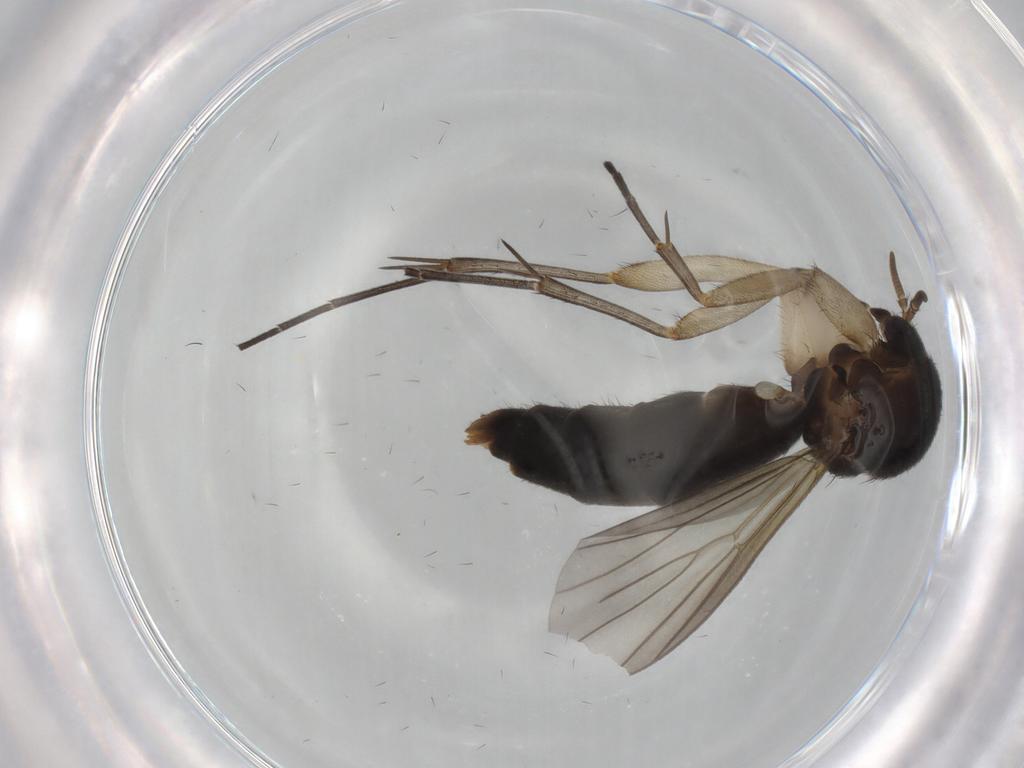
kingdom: Animalia
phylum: Arthropoda
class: Insecta
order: Diptera
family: Mycetophilidae
